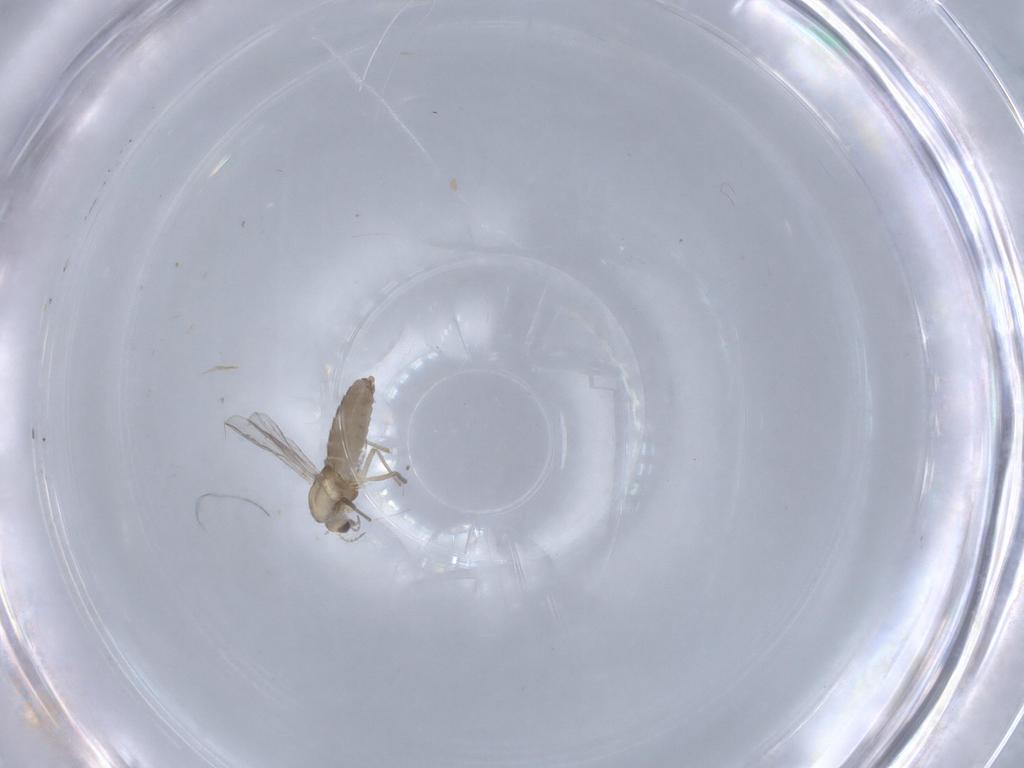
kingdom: Animalia
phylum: Arthropoda
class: Insecta
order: Diptera
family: Chironomidae
